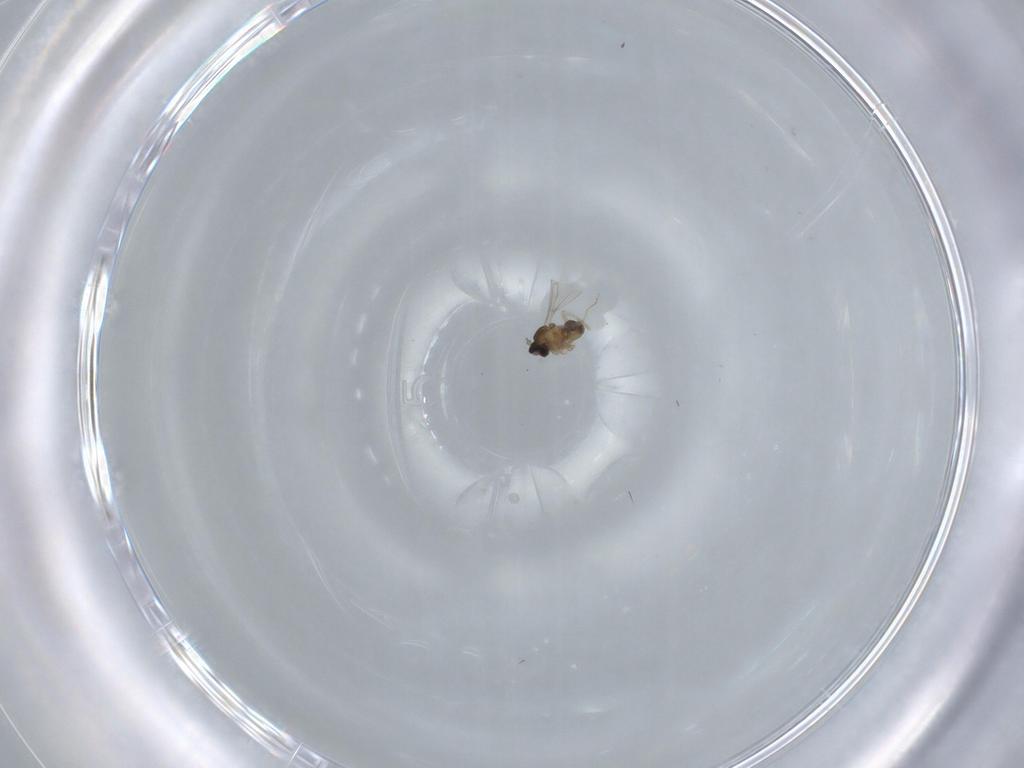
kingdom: Animalia
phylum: Arthropoda
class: Insecta
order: Diptera
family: Cecidomyiidae
